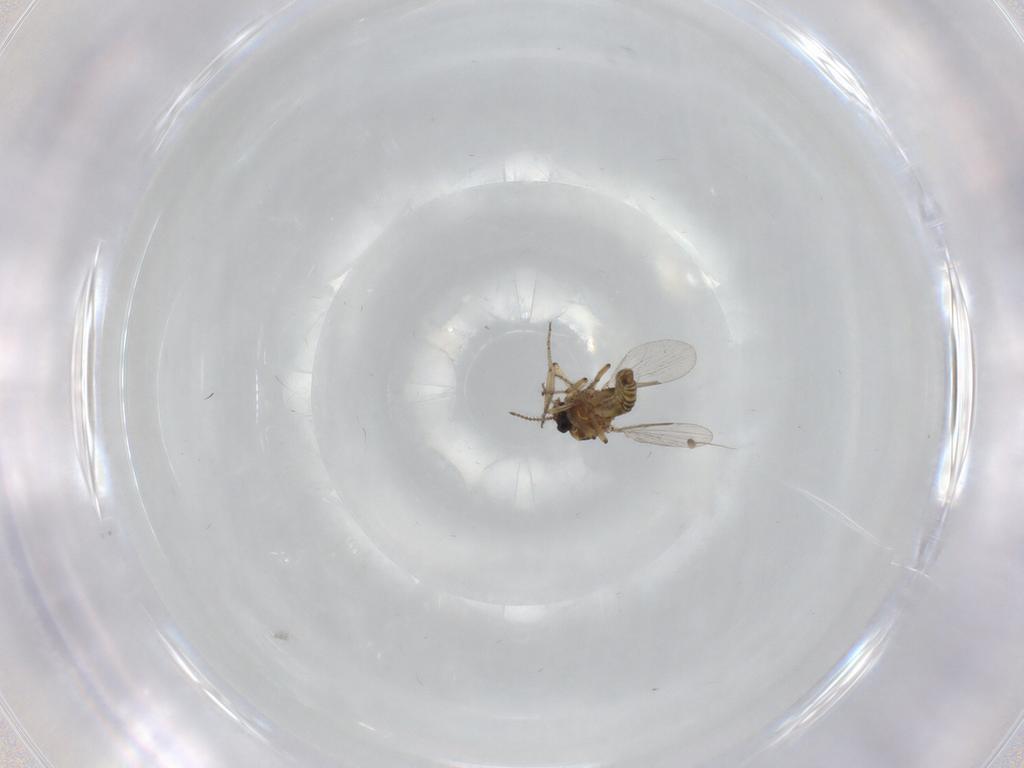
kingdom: Animalia
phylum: Arthropoda
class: Insecta
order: Diptera
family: Ceratopogonidae
